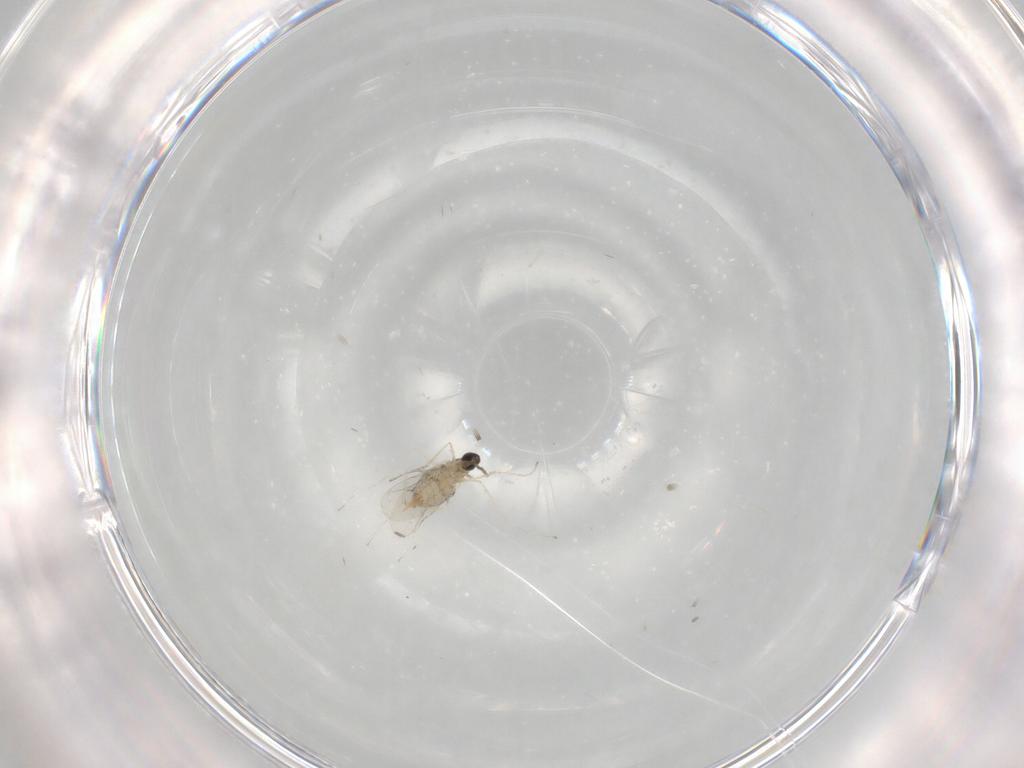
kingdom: Animalia
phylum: Arthropoda
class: Insecta
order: Diptera
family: Cecidomyiidae
